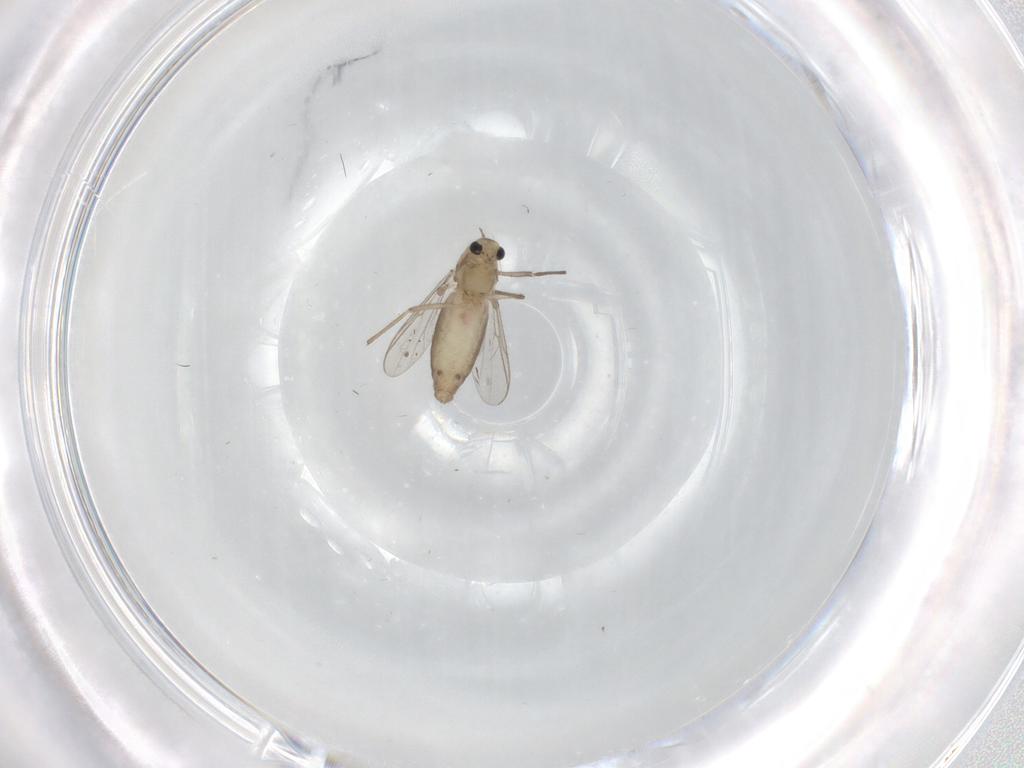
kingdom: Animalia
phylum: Arthropoda
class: Insecta
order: Diptera
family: Chironomidae
